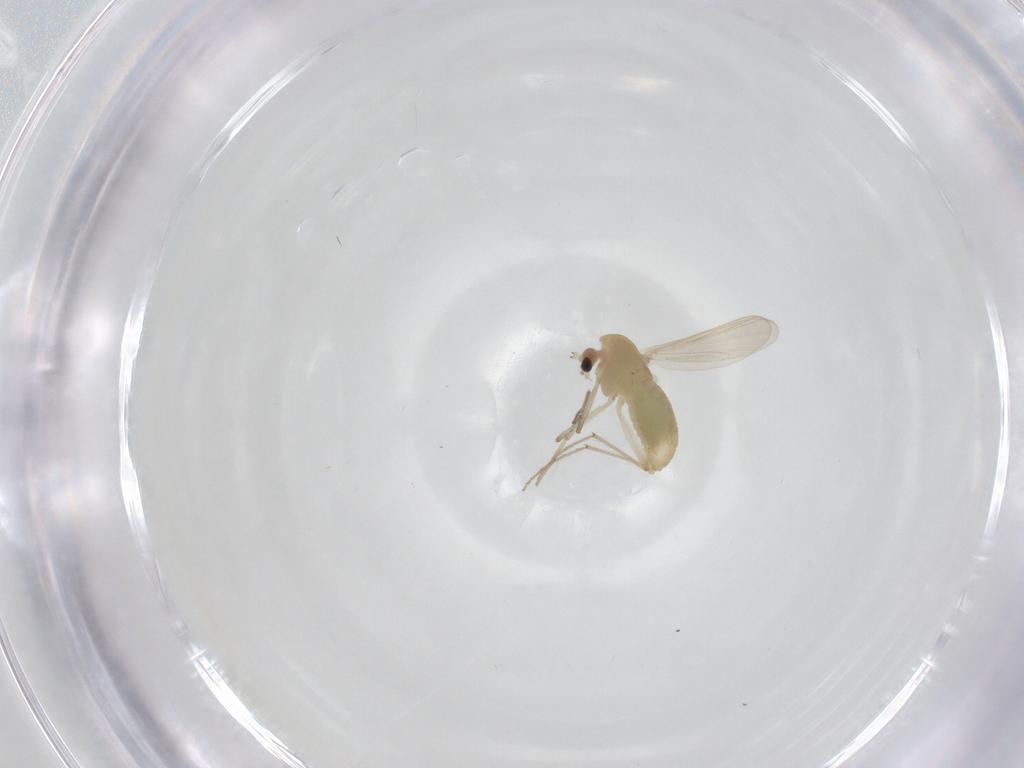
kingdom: Animalia
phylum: Arthropoda
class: Insecta
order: Diptera
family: Chironomidae
